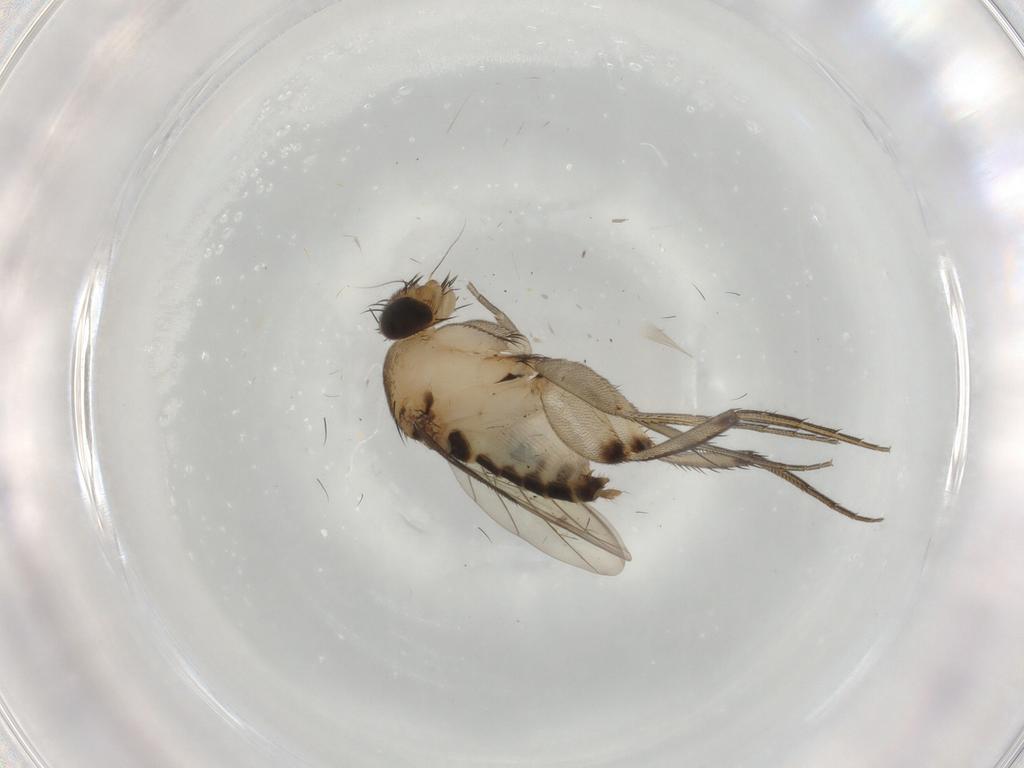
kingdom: Animalia
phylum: Arthropoda
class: Insecta
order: Diptera
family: Phoridae
